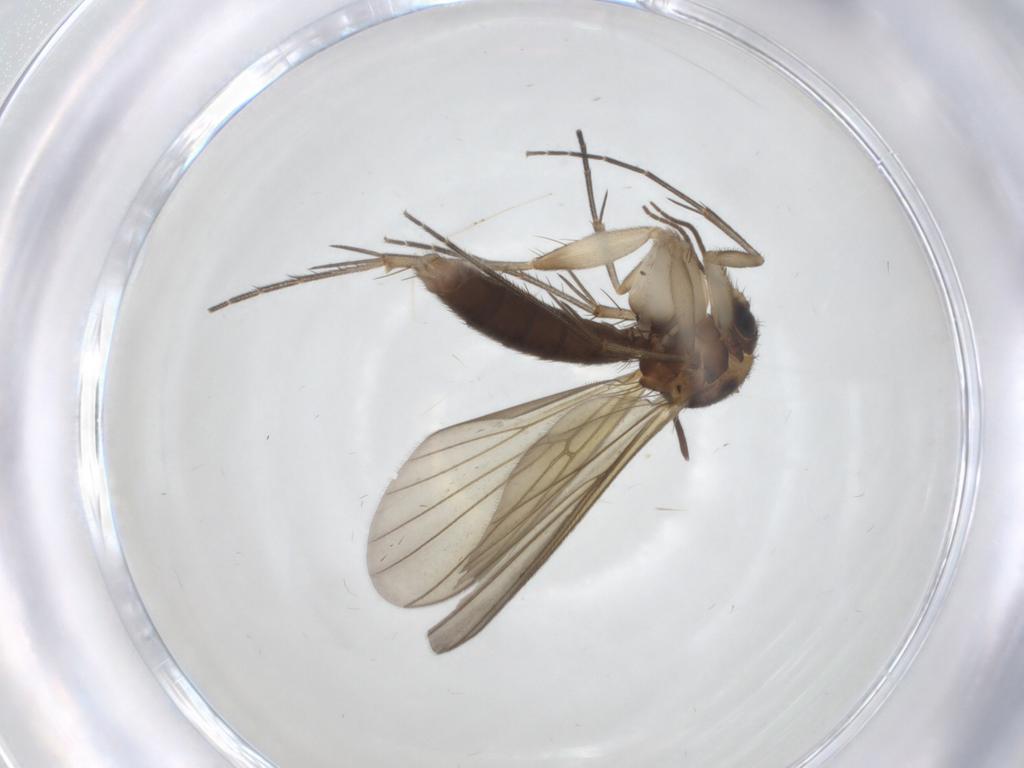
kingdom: Animalia
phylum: Arthropoda
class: Insecta
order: Diptera
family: Mycetophilidae
